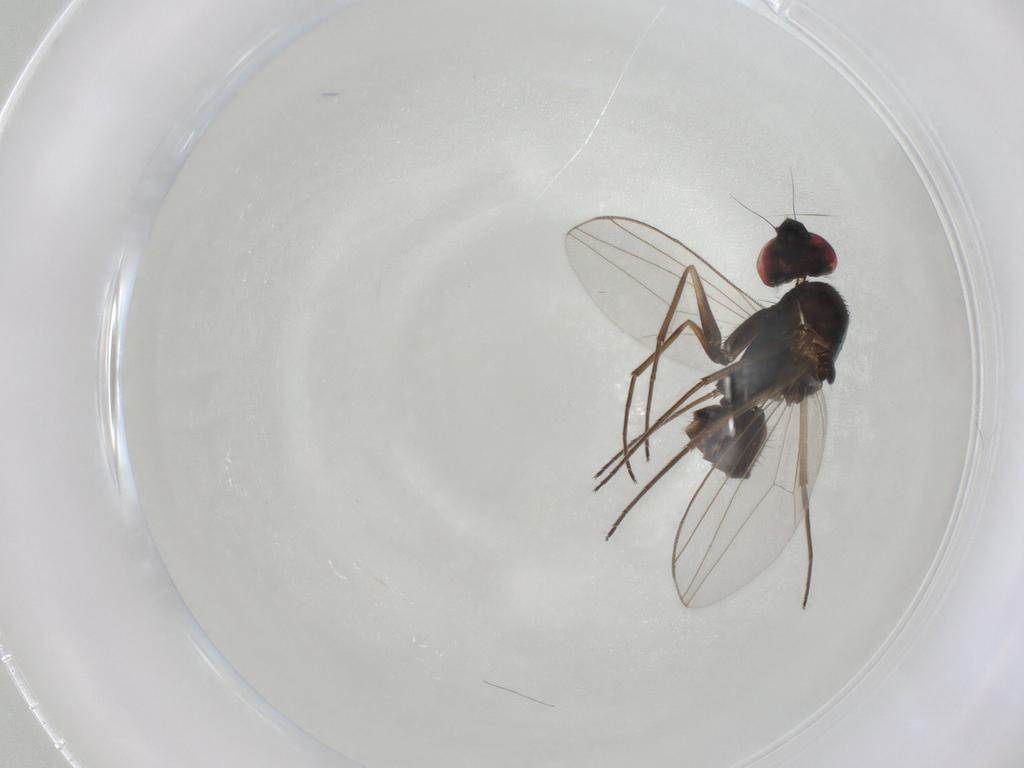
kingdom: Animalia
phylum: Arthropoda
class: Insecta
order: Diptera
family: Dolichopodidae
